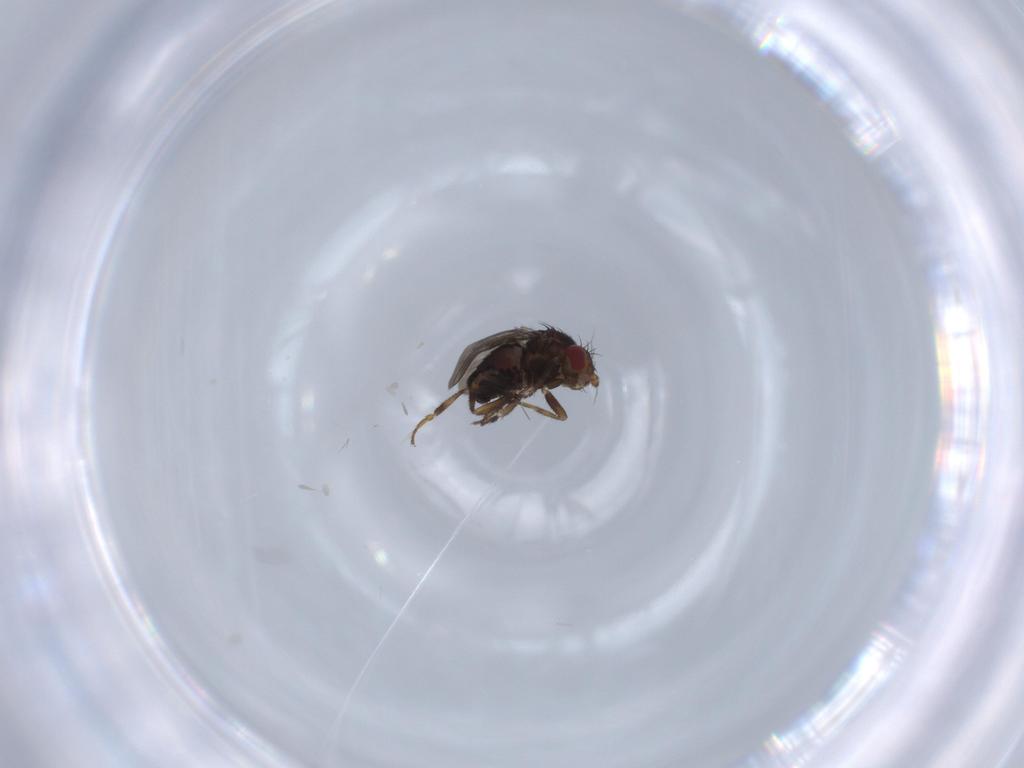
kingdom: Animalia
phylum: Arthropoda
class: Insecta
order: Diptera
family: Sphaeroceridae
